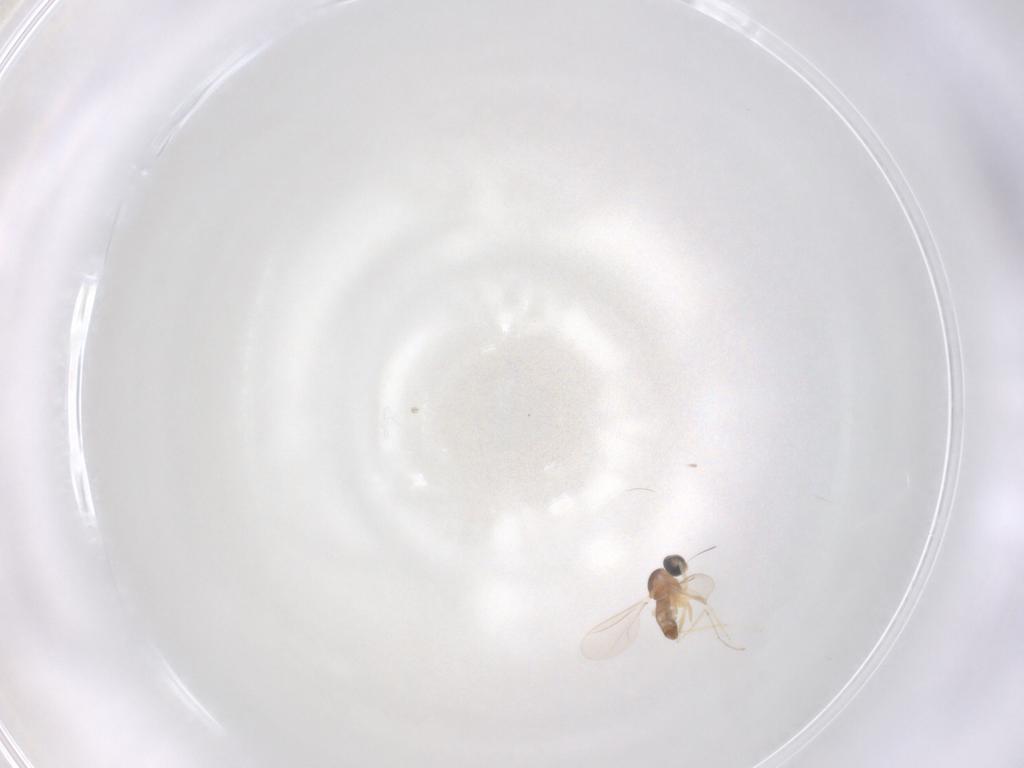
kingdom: Animalia
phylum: Arthropoda
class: Insecta
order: Diptera
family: Cecidomyiidae
